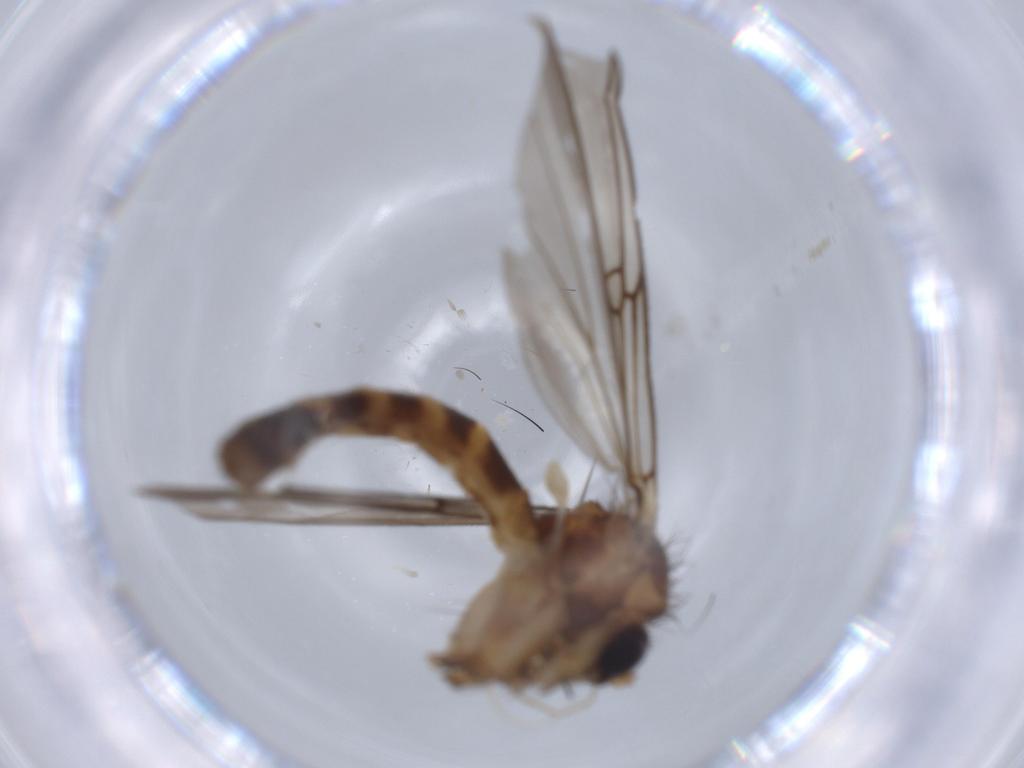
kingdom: Animalia
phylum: Arthropoda
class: Insecta
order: Diptera
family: Mycetophilidae
